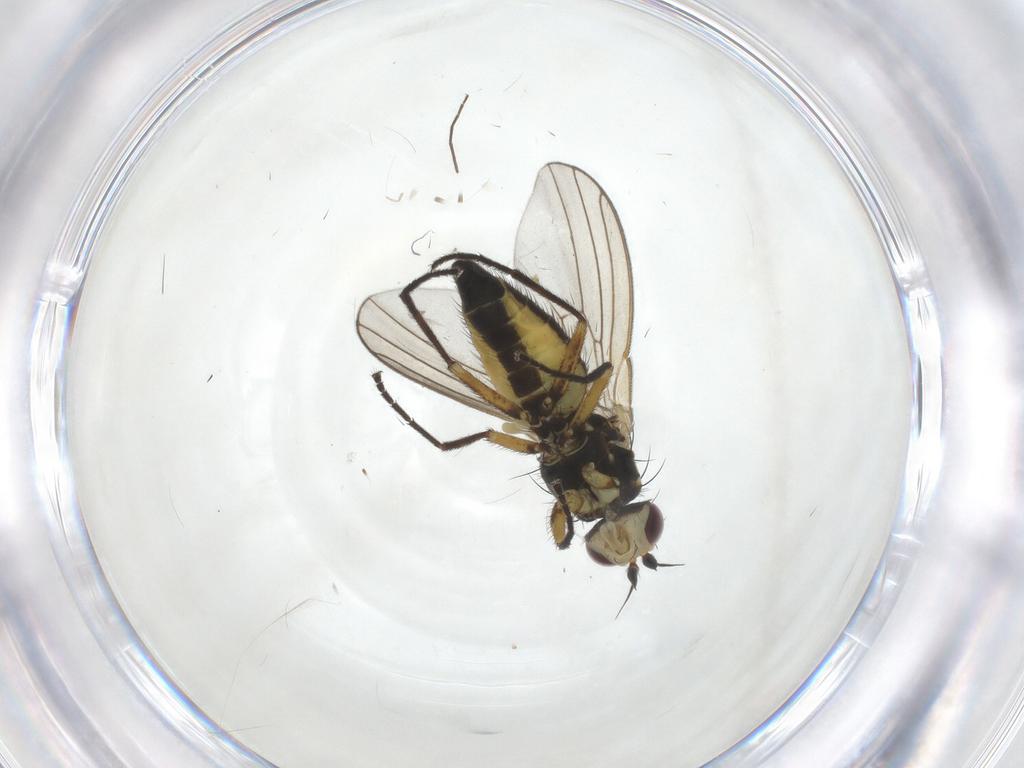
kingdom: Animalia
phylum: Arthropoda
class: Insecta
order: Diptera
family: Agromyzidae
